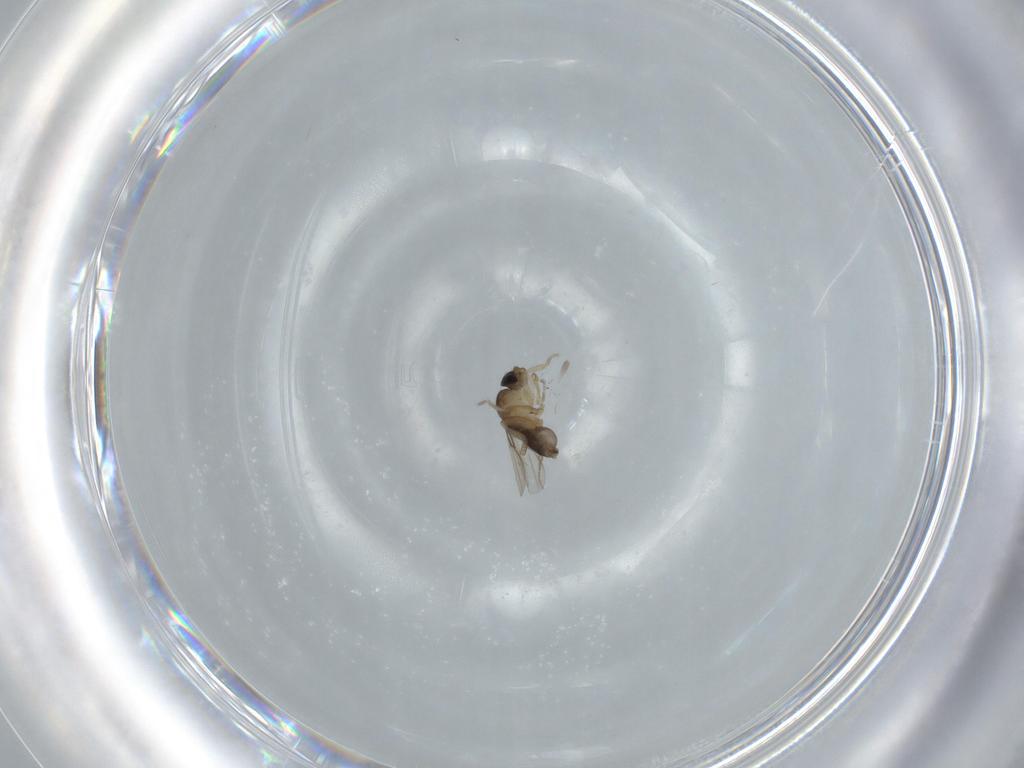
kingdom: Animalia
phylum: Arthropoda
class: Insecta
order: Diptera
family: Phoridae
